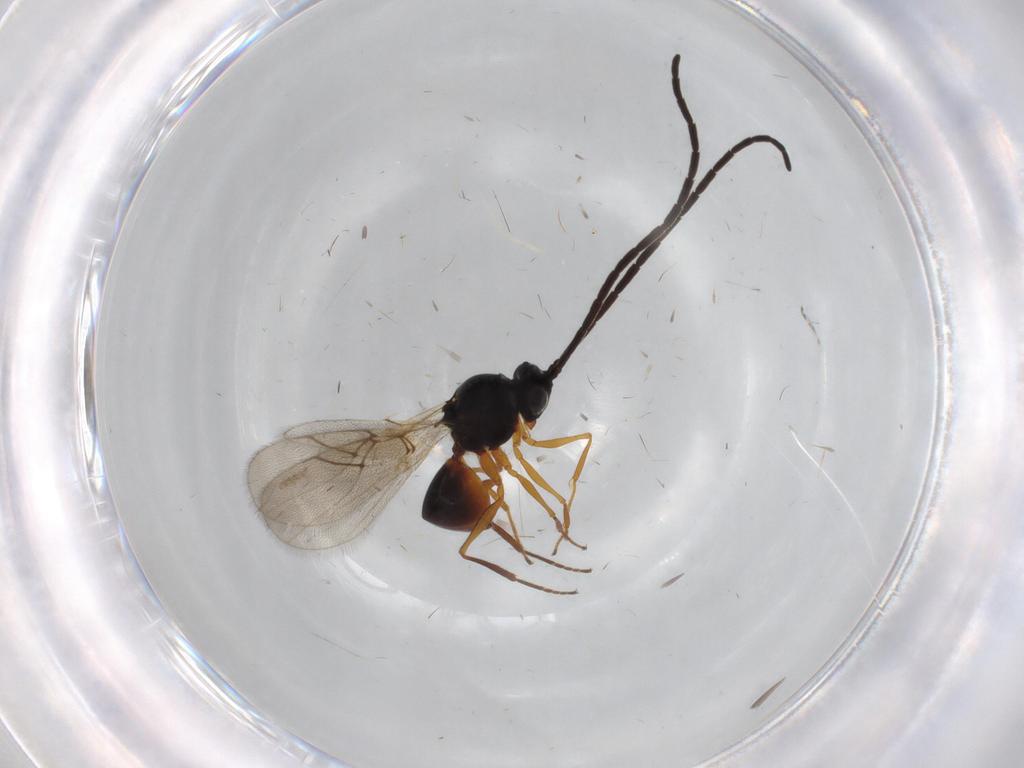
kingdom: Animalia
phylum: Arthropoda
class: Insecta
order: Hymenoptera
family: Figitidae
